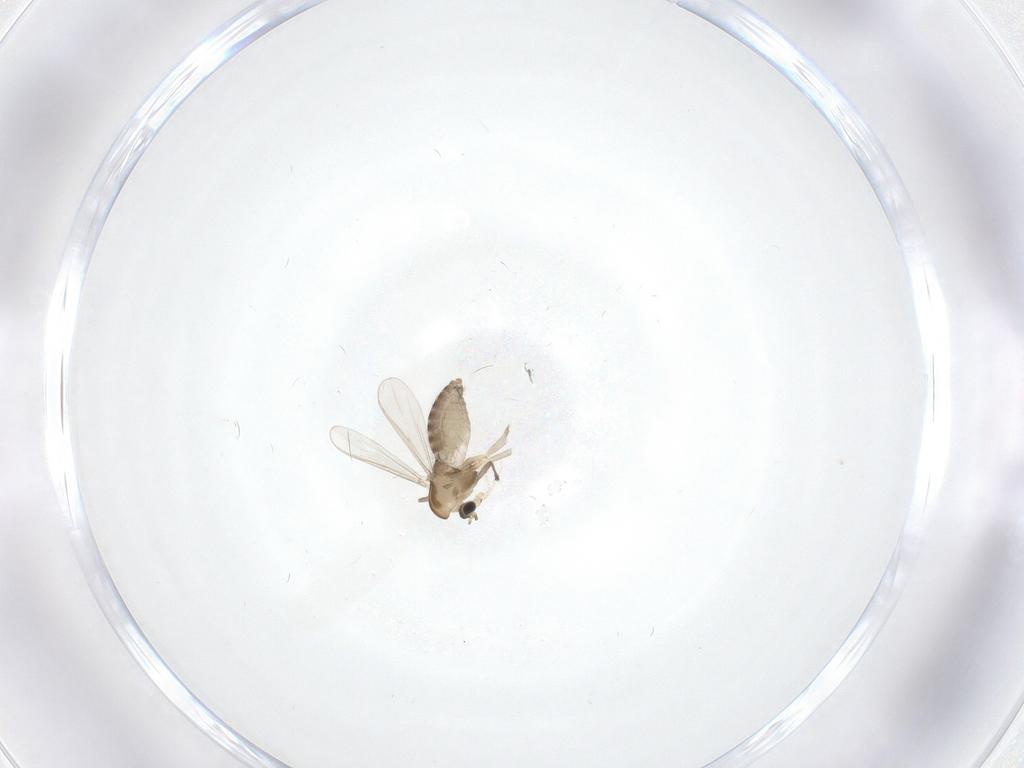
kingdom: Animalia
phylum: Arthropoda
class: Insecta
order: Diptera
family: Chironomidae
